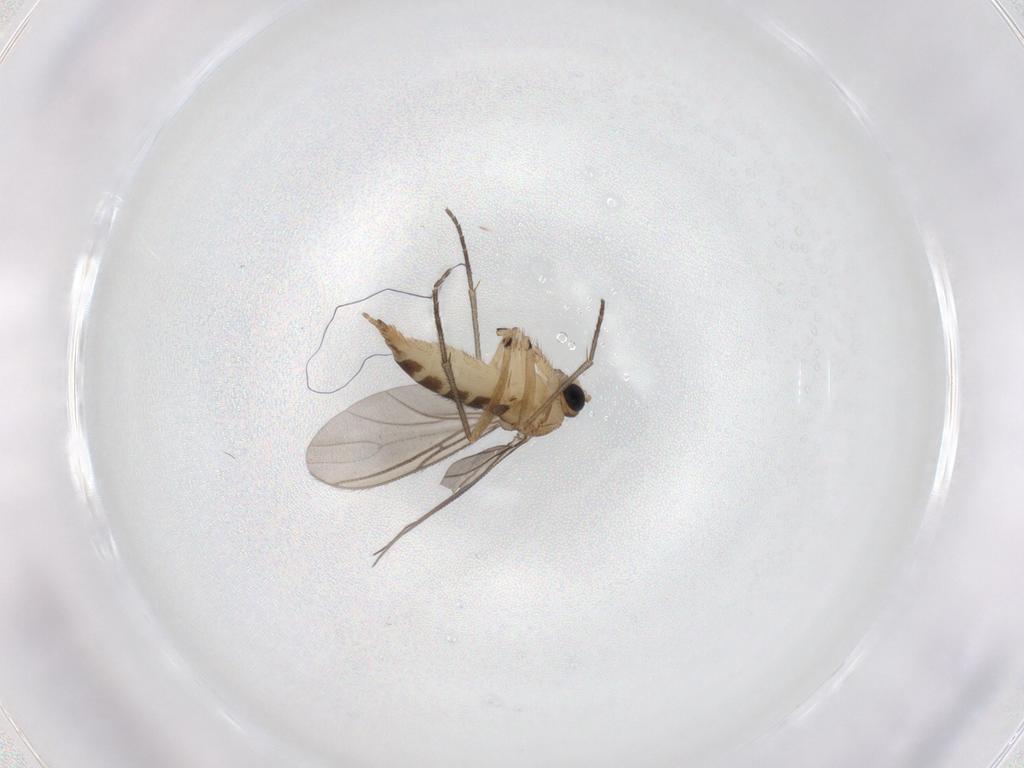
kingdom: Animalia
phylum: Arthropoda
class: Insecta
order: Diptera
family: Sciaridae
